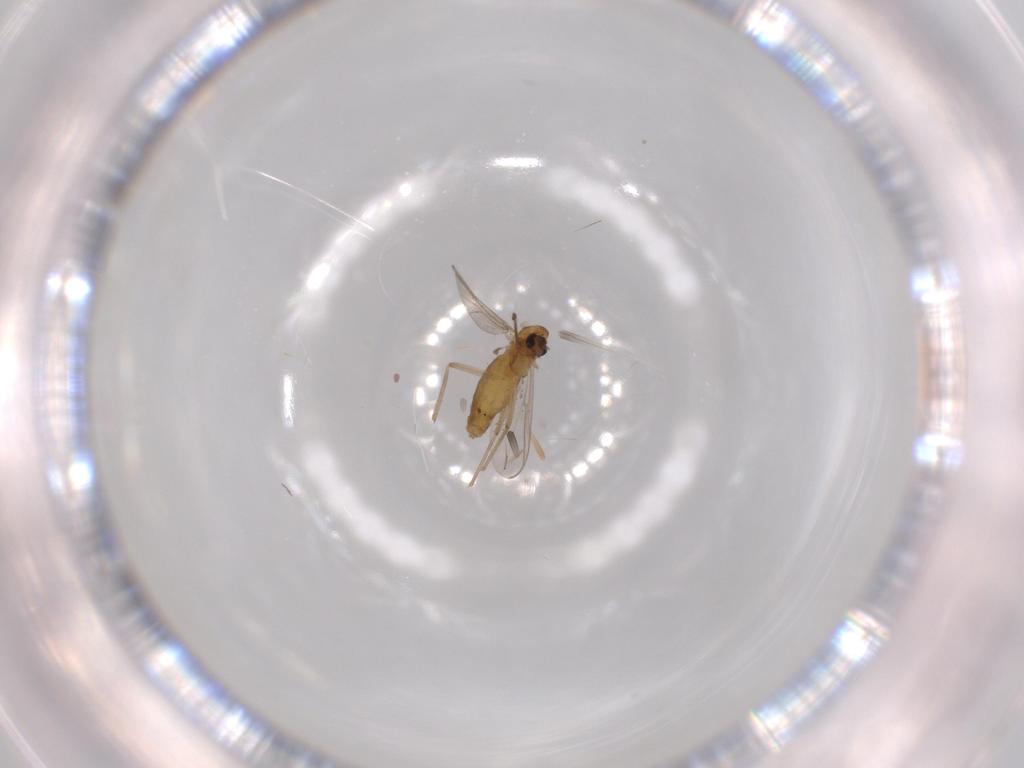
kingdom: Animalia
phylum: Arthropoda
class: Insecta
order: Diptera
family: Chironomidae
